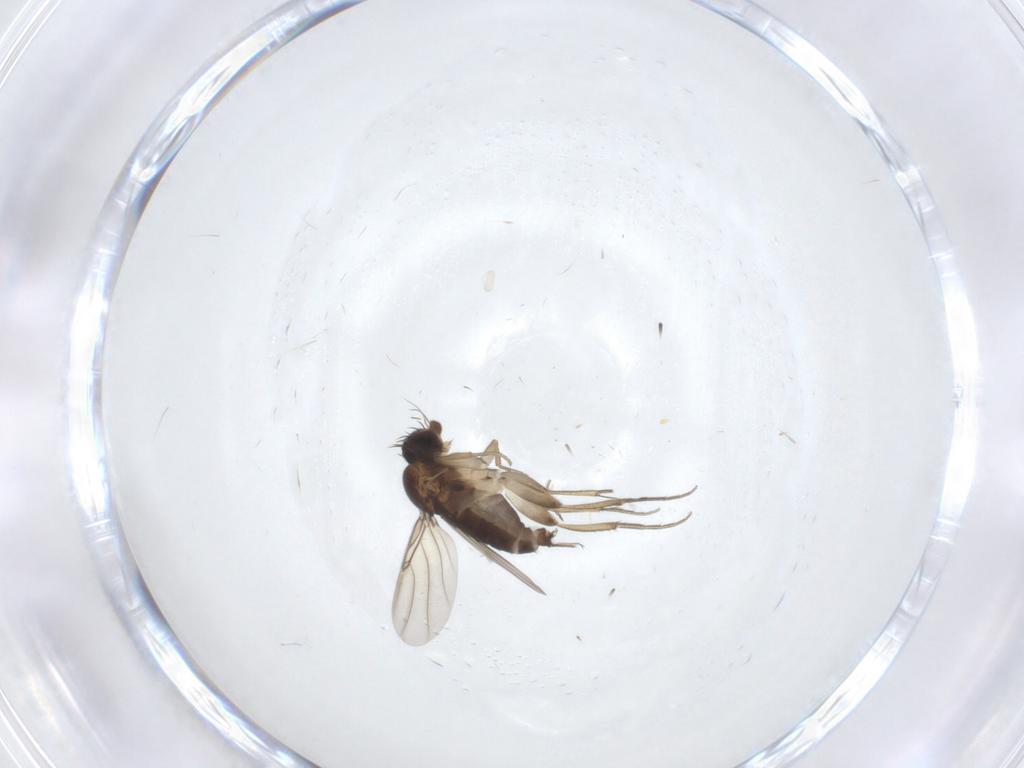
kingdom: Animalia
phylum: Arthropoda
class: Insecta
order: Diptera
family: Phoridae
